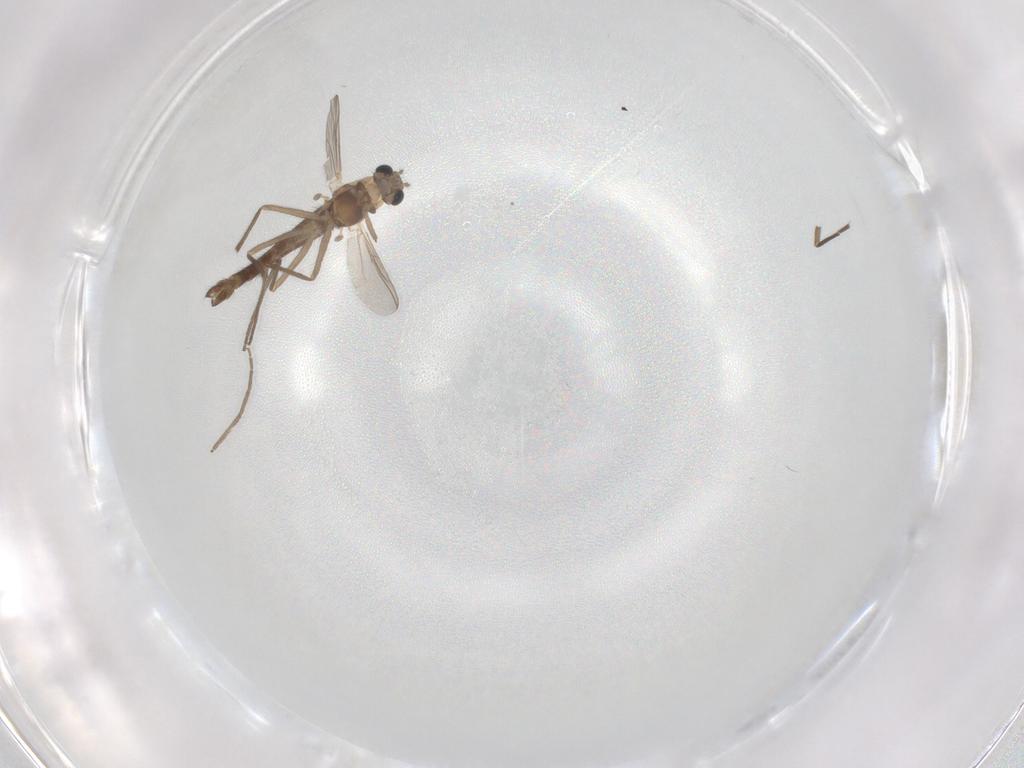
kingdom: Animalia
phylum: Arthropoda
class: Insecta
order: Diptera
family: Chironomidae
